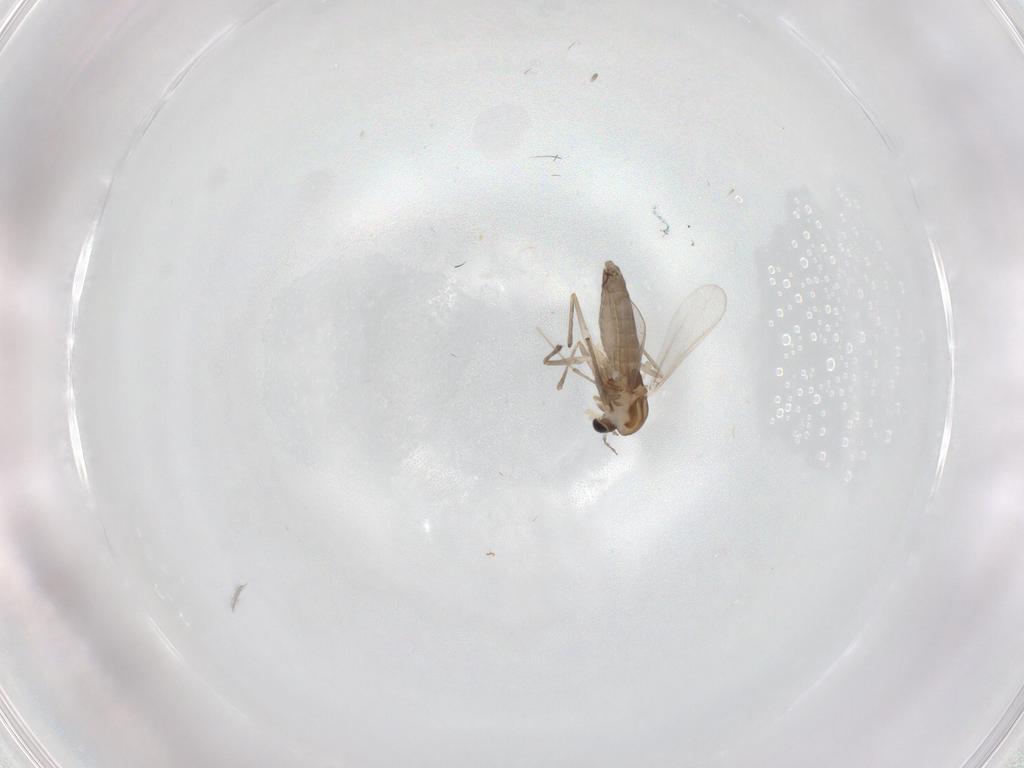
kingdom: Animalia
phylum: Arthropoda
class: Insecta
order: Diptera
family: Chironomidae
